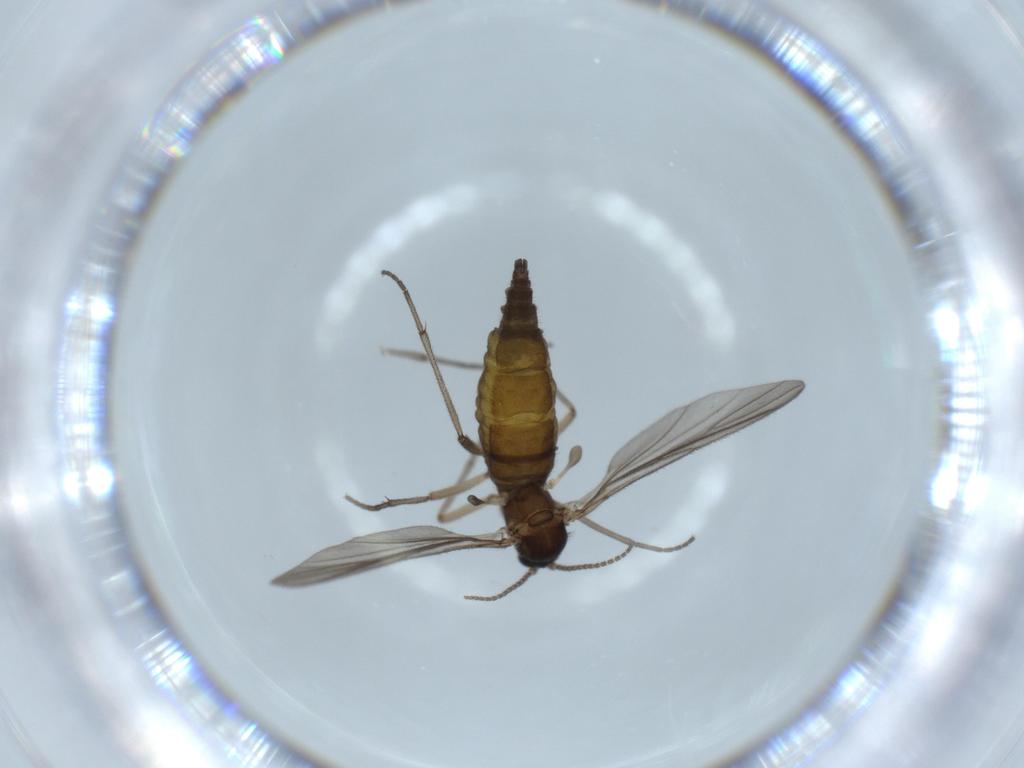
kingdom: Animalia
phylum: Arthropoda
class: Insecta
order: Diptera
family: Sciaridae
